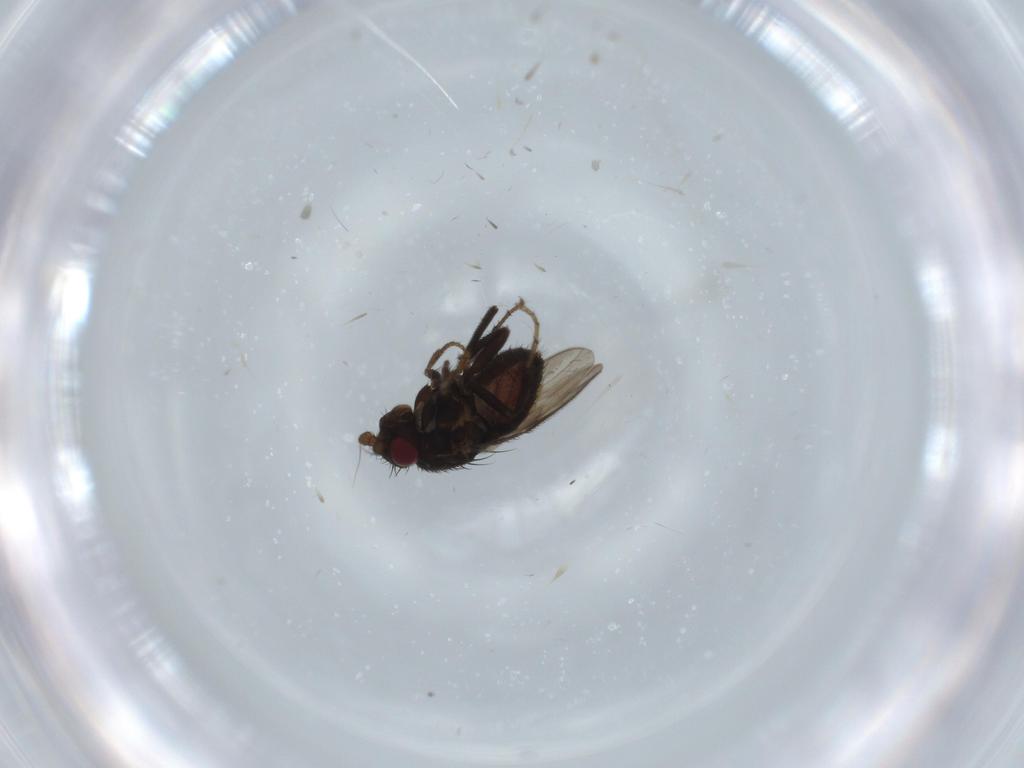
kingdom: Animalia
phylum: Arthropoda
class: Insecta
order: Diptera
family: Sphaeroceridae
